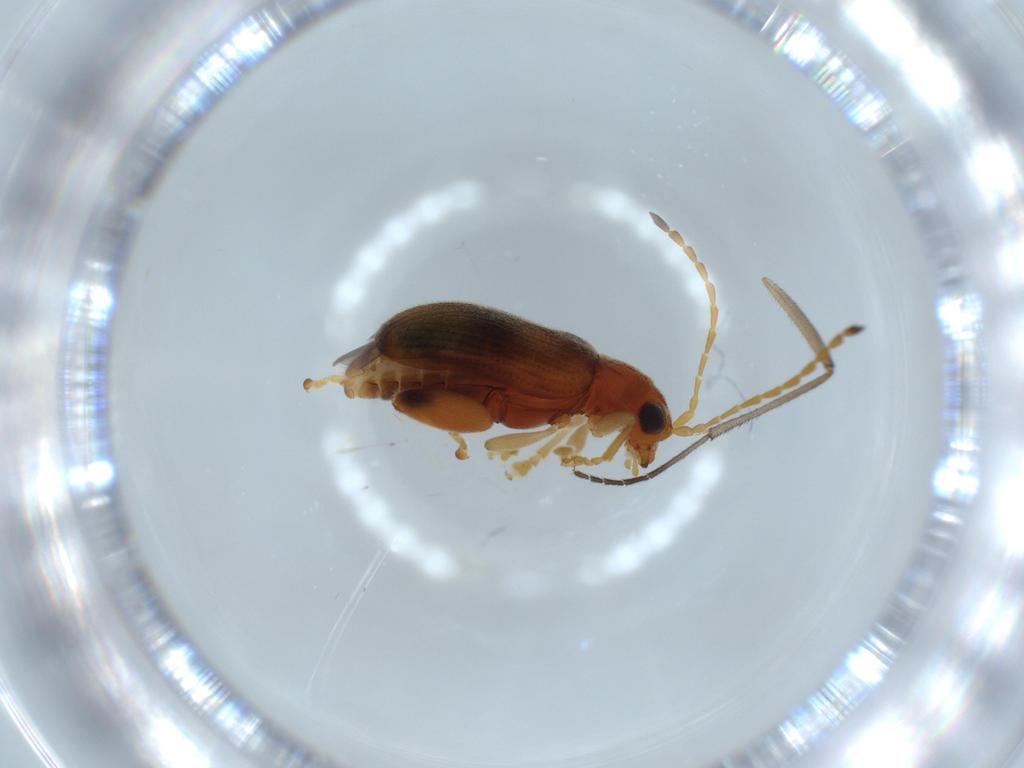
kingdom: Animalia
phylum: Arthropoda
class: Insecta
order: Coleoptera
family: Chrysomelidae
